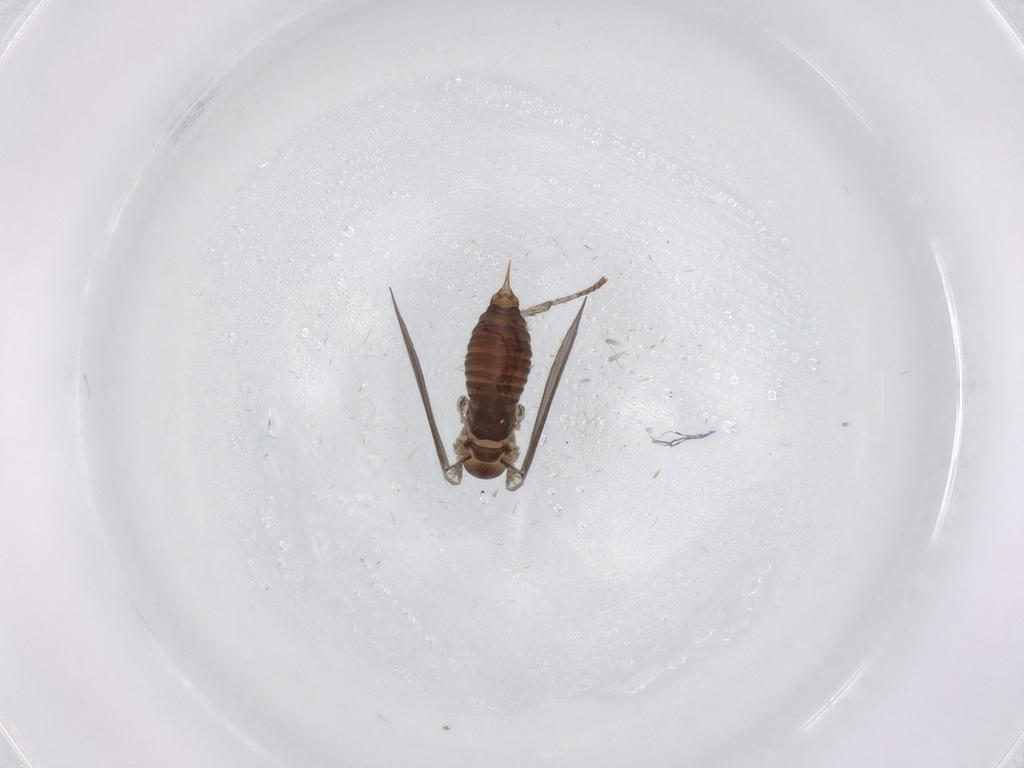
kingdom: Animalia
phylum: Arthropoda
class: Insecta
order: Diptera
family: Psychodidae
